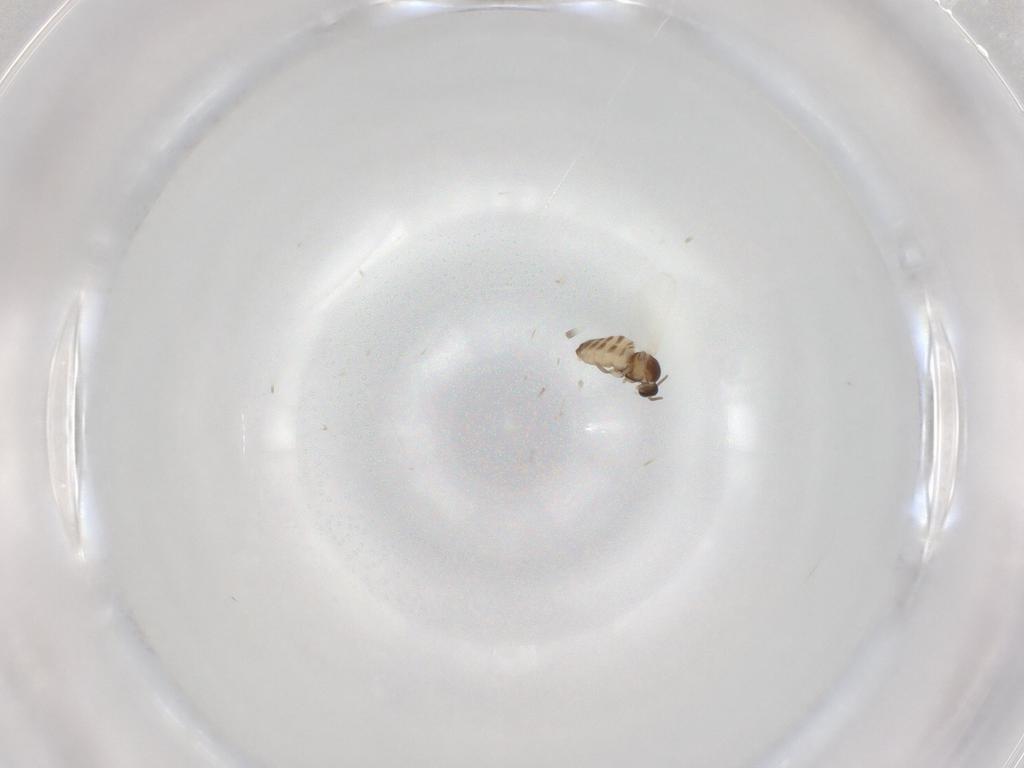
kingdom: Animalia
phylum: Arthropoda
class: Insecta
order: Diptera
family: Cecidomyiidae
